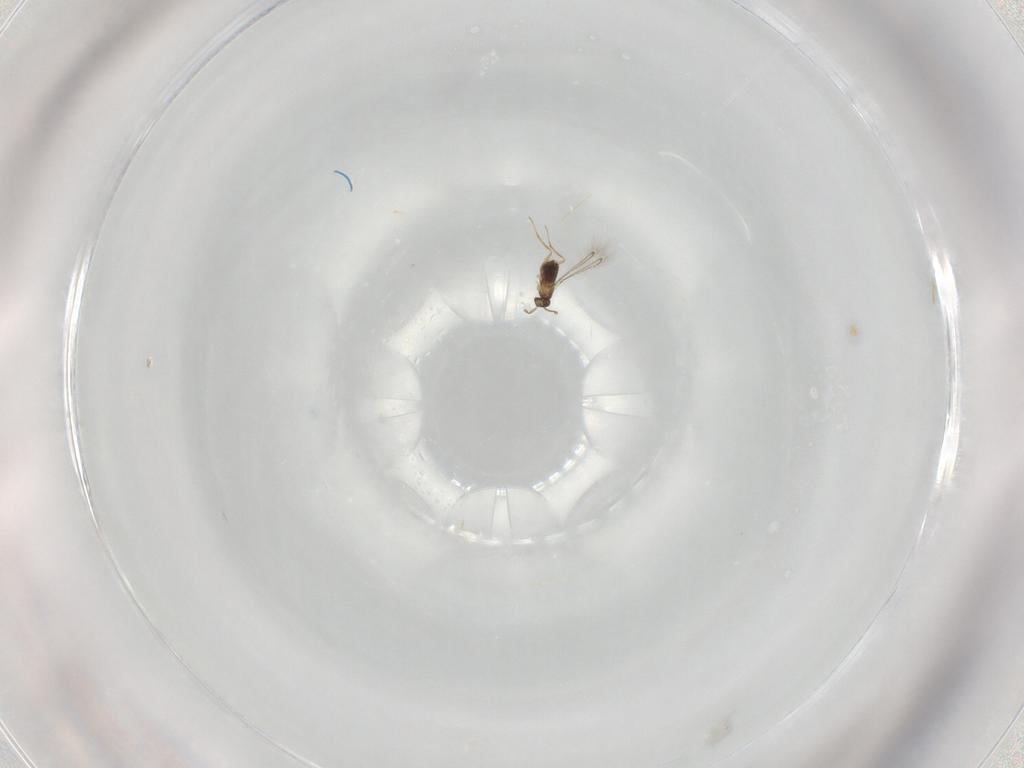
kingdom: Animalia
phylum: Arthropoda
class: Insecta
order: Hymenoptera
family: Mymaridae
